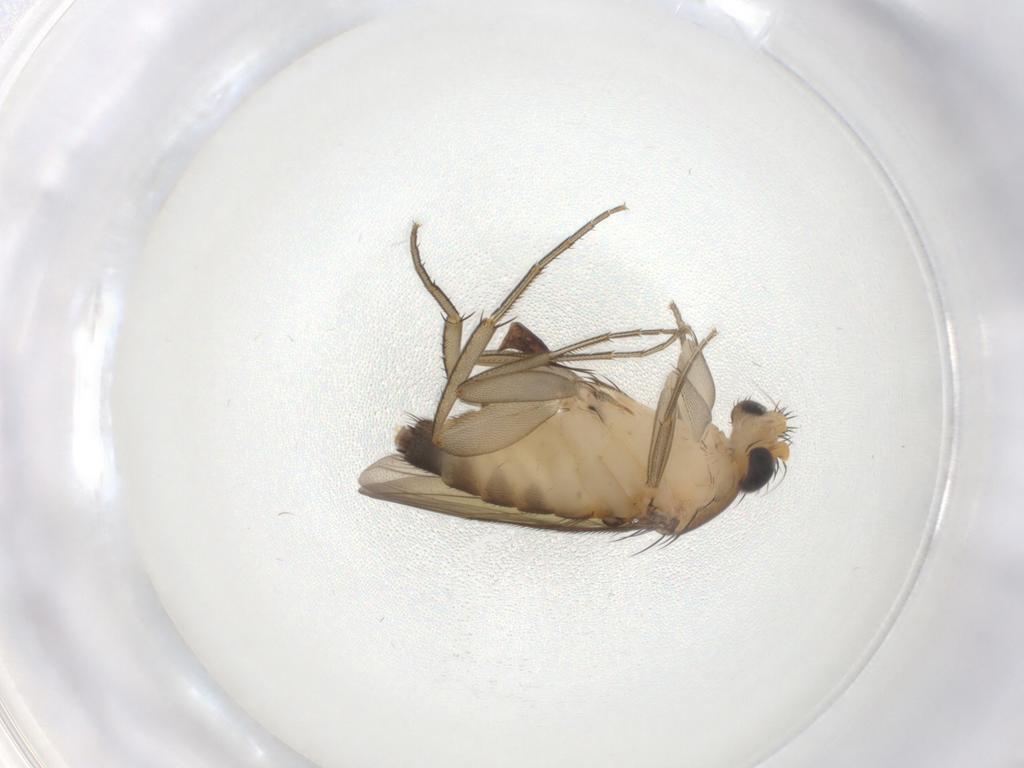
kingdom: Animalia
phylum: Arthropoda
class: Insecta
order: Diptera
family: Phoridae
